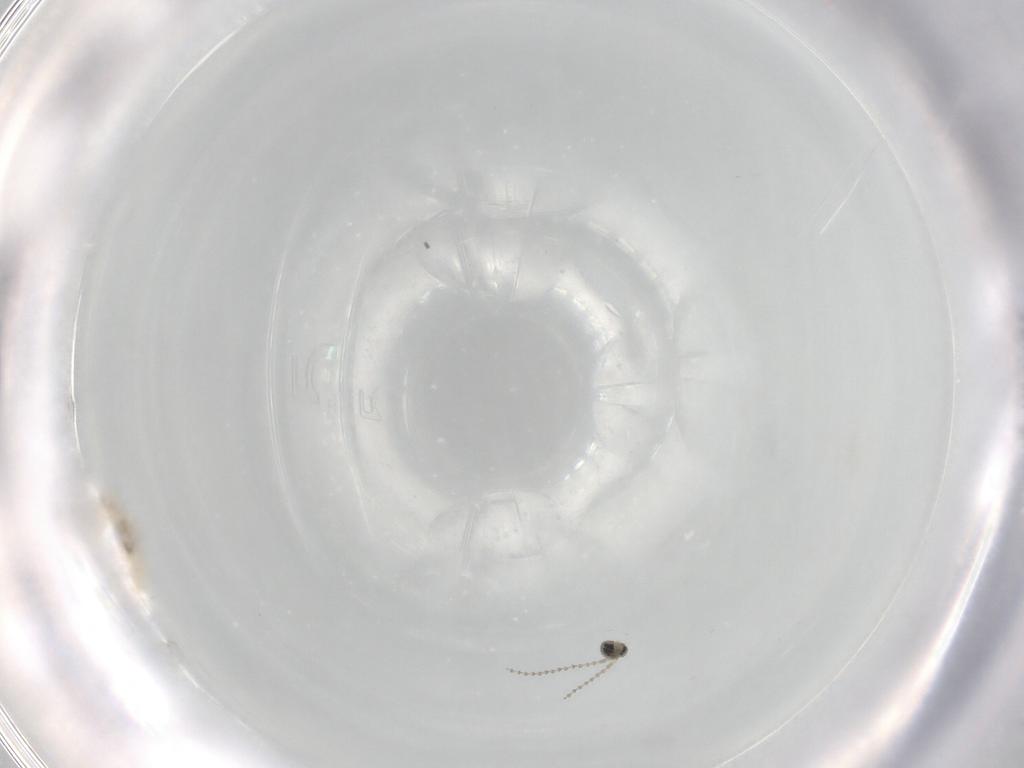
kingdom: Animalia
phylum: Arthropoda
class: Insecta
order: Diptera
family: Cecidomyiidae
